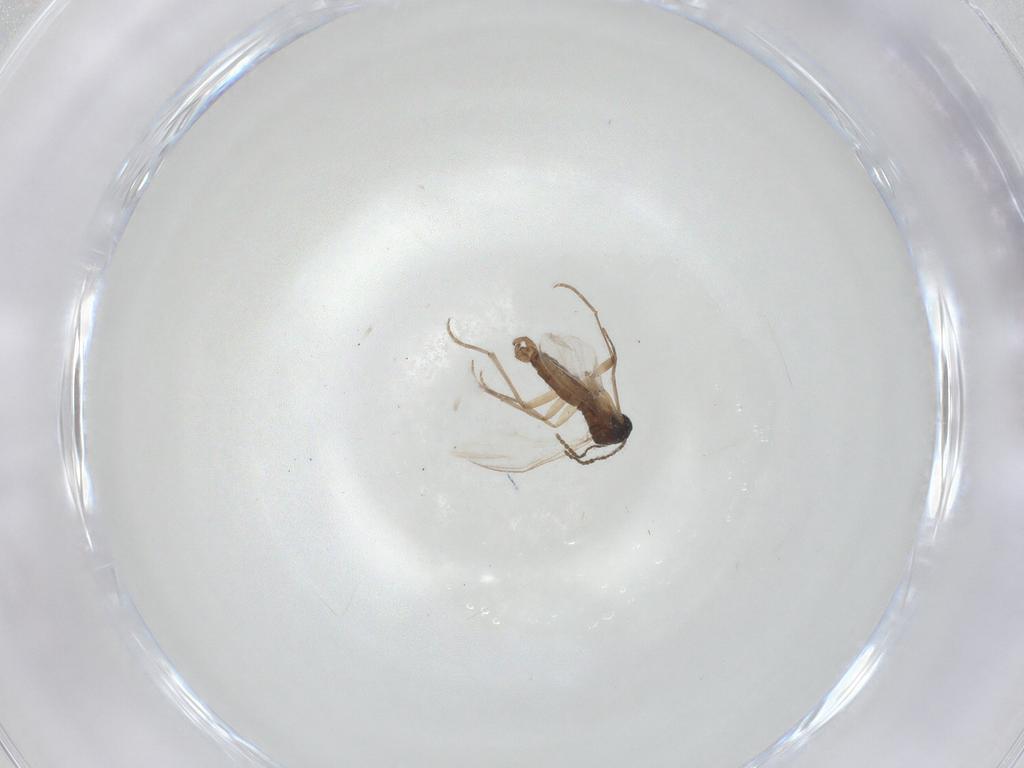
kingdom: Animalia
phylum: Arthropoda
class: Insecta
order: Diptera
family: Sciaridae
